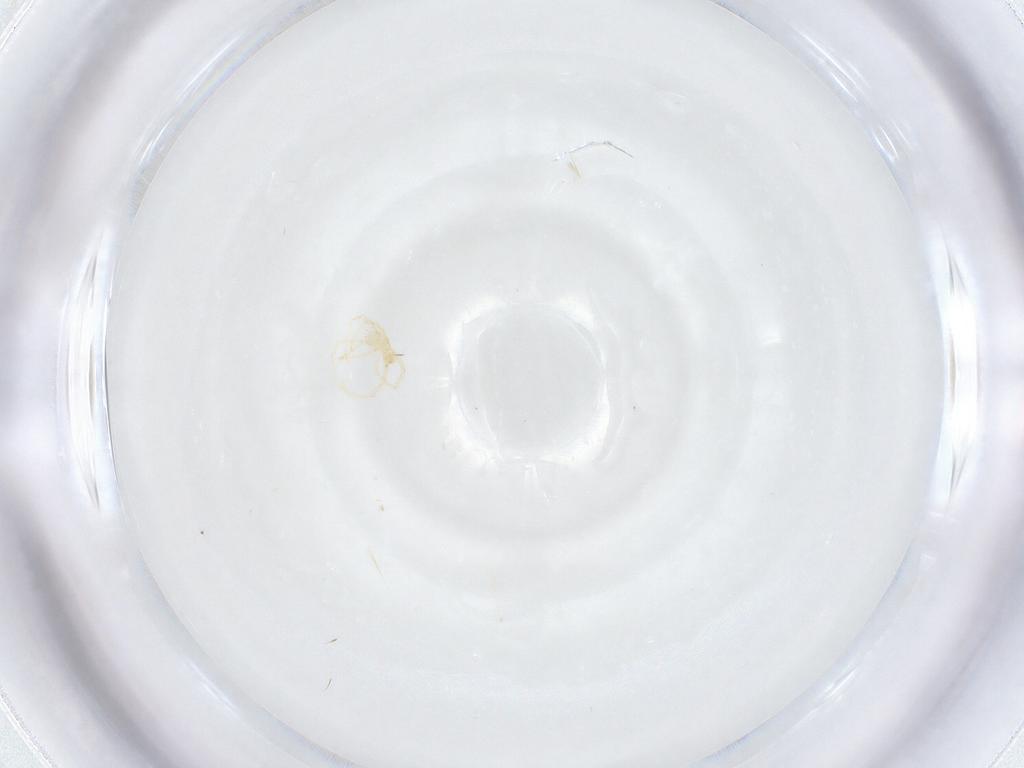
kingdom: Animalia
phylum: Arthropoda
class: Arachnida
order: Trombidiformes
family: Erythraeidae
